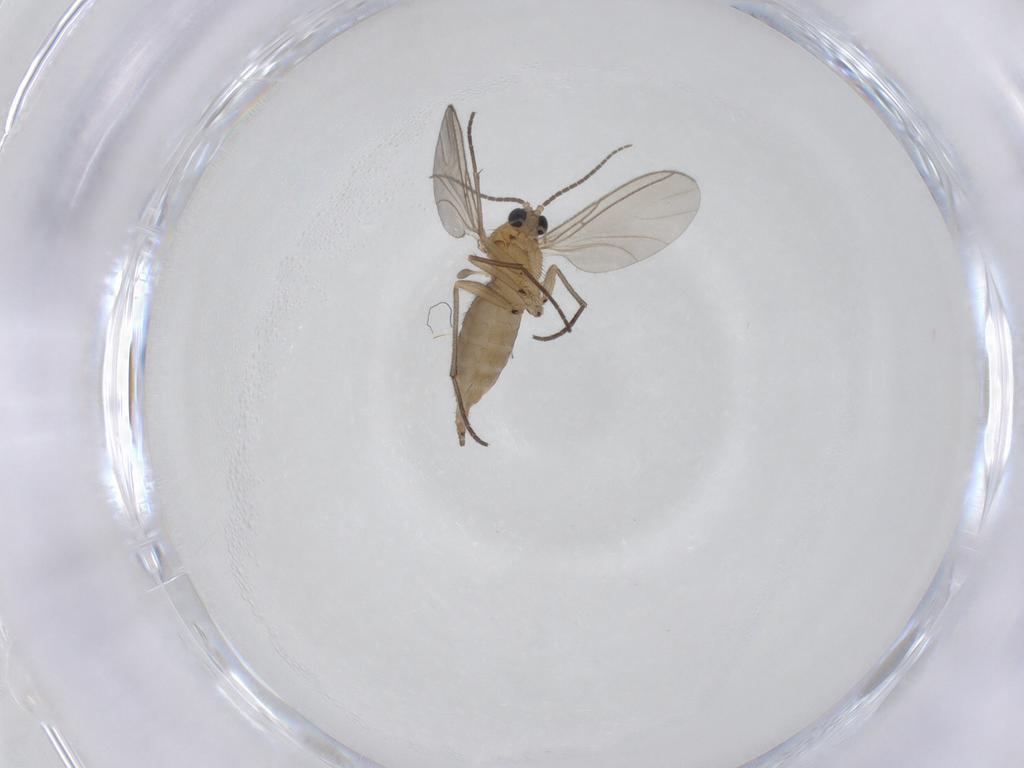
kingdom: Animalia
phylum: Arthropoda
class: Insecta
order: Diptera
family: Sciaridae
